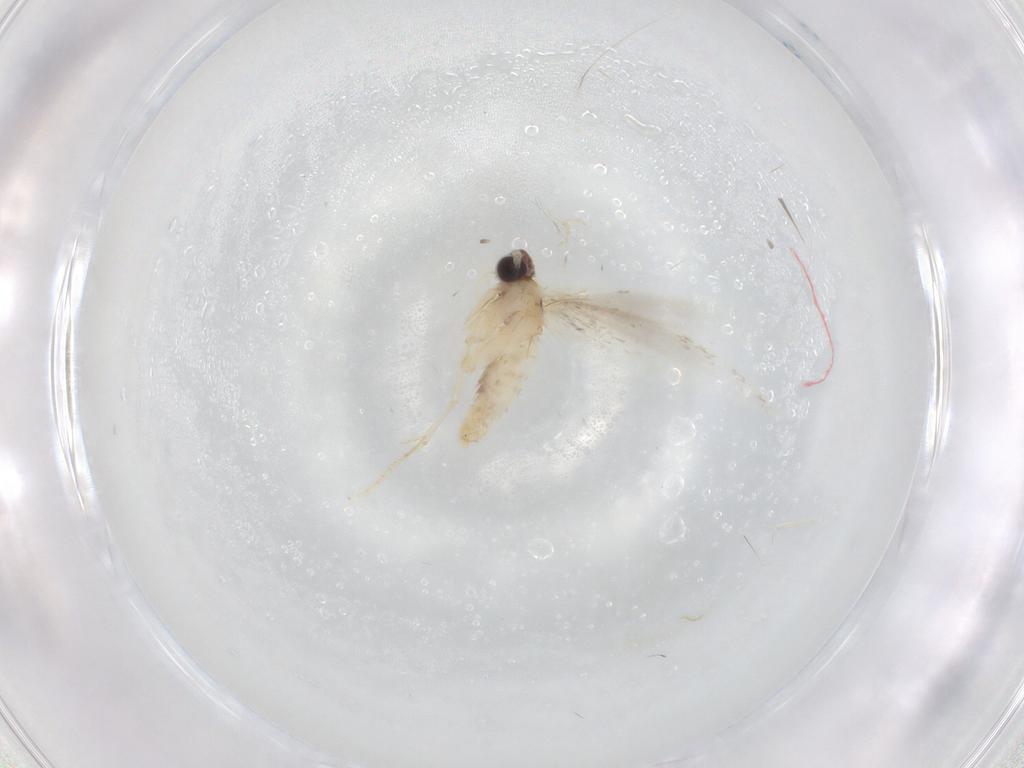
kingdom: Animalia
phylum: Arthropoda
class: Insecta
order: Lepidoptera
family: Nepticulidae
